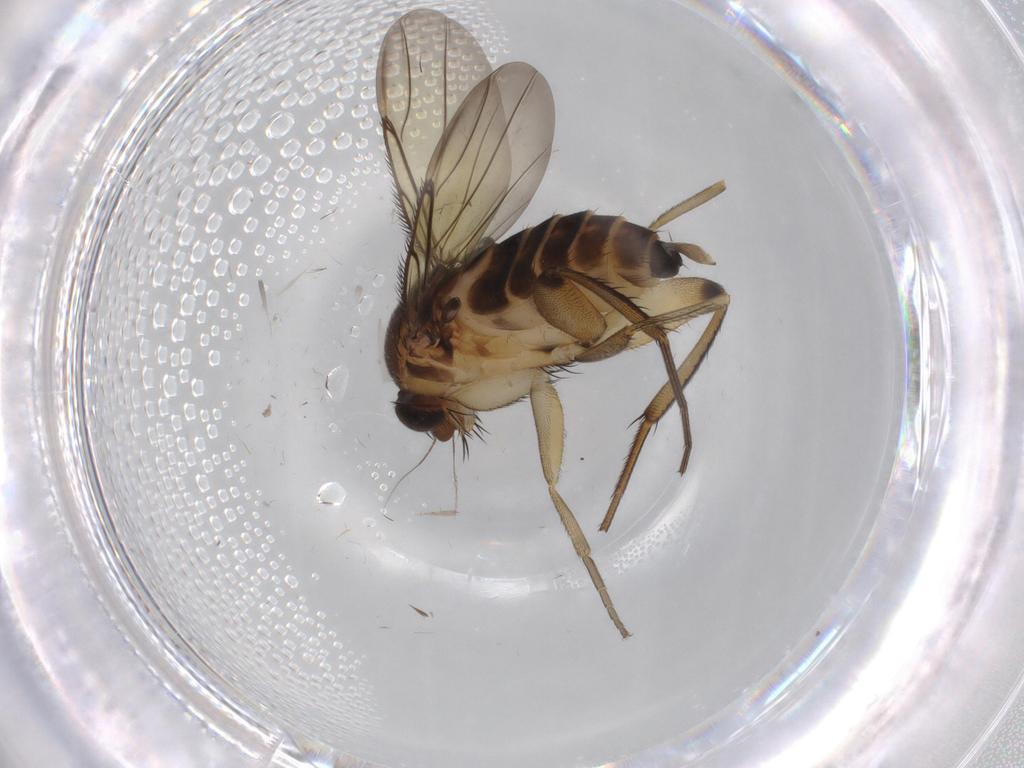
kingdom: Animalia
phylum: Arthropoda
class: Insecta
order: Diptera
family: Phoridae
